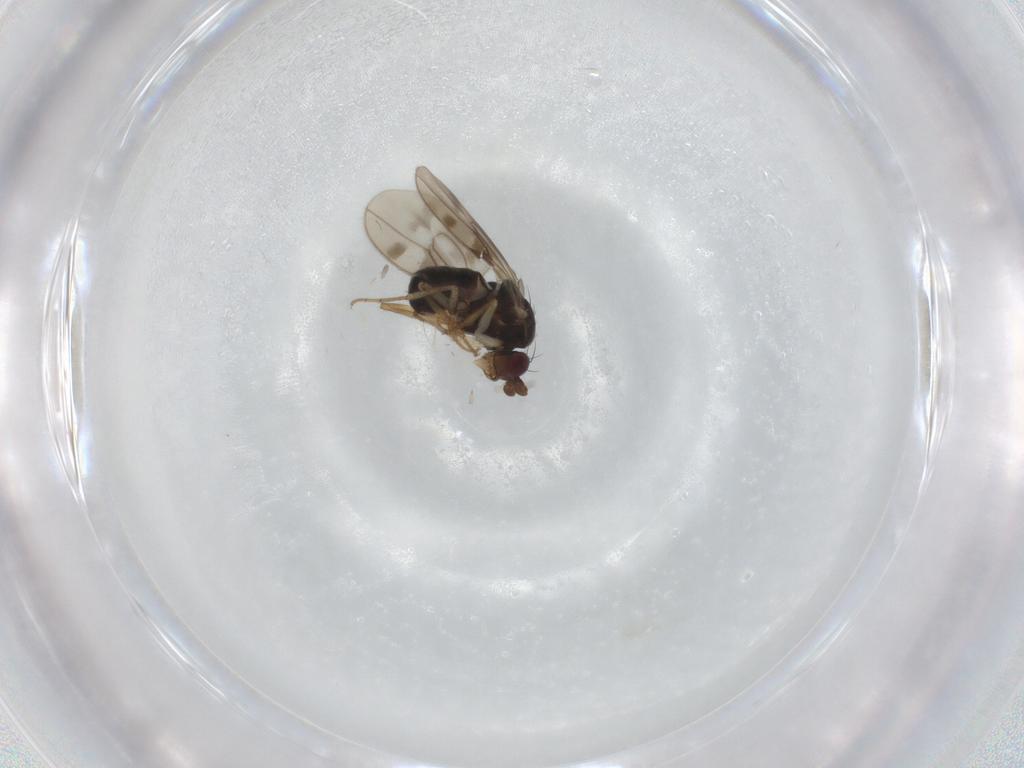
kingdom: Animalia
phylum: Arthropoda
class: Insecta
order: Diptera
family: Sphaeroceridae
